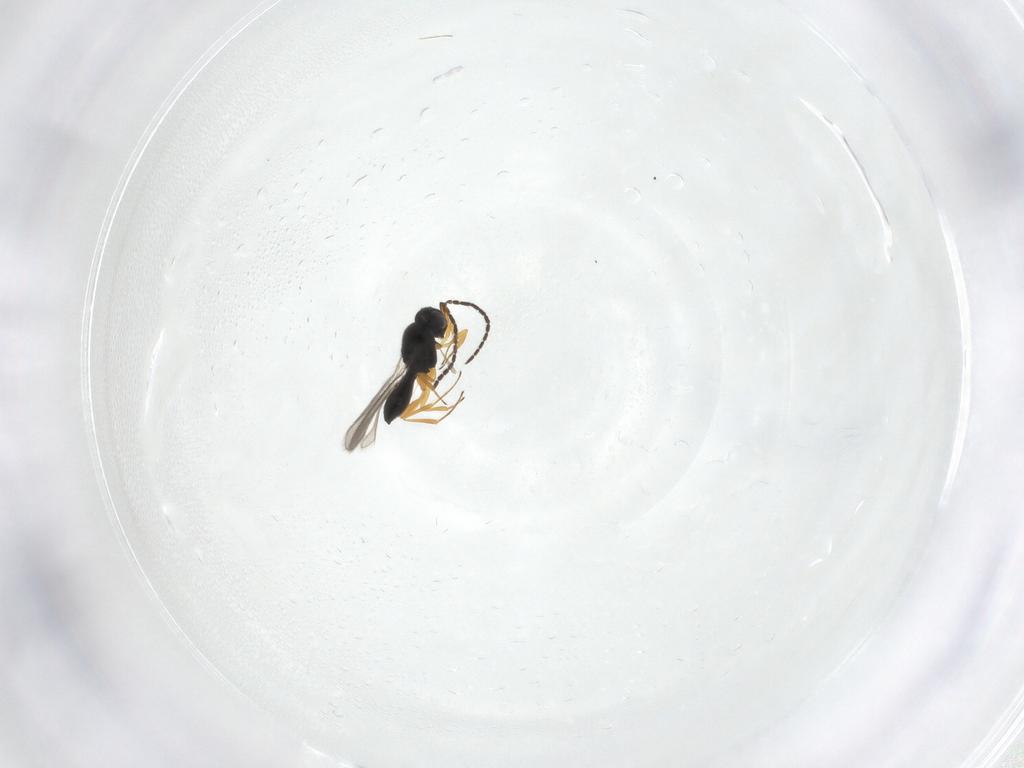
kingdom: Animalia
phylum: Arthropoda
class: Insecta
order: Hymenoptera
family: Scelionidae
